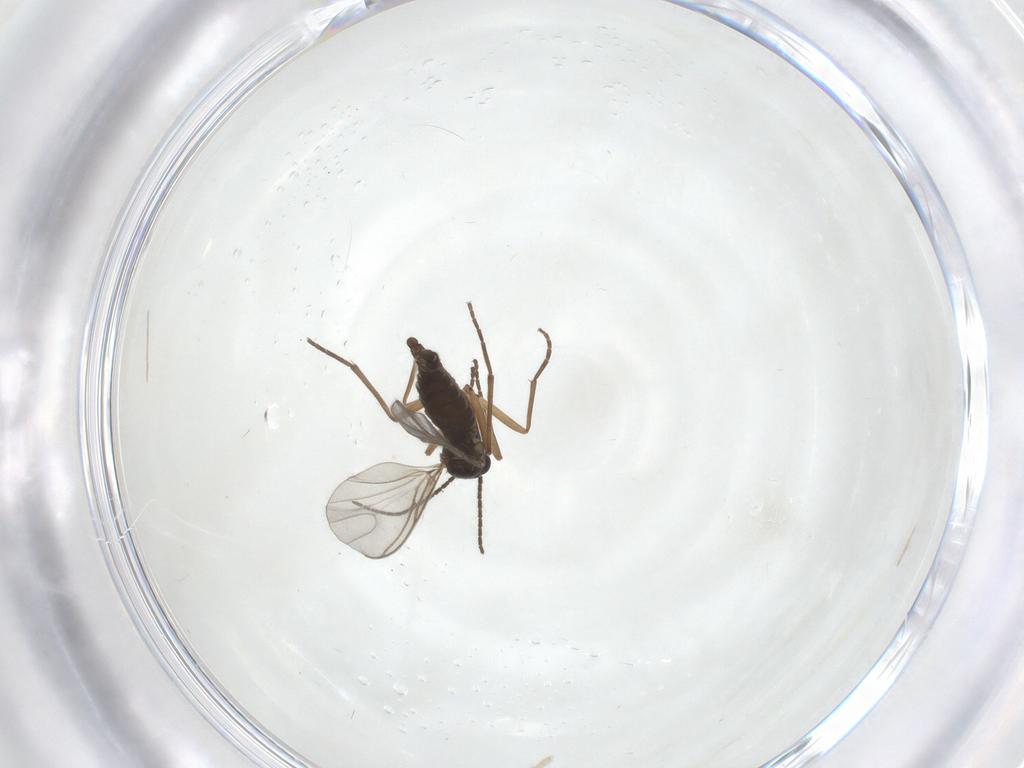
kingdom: Animalia
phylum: Arthropoda
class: Insecta
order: Diptera
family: Sciaridae
